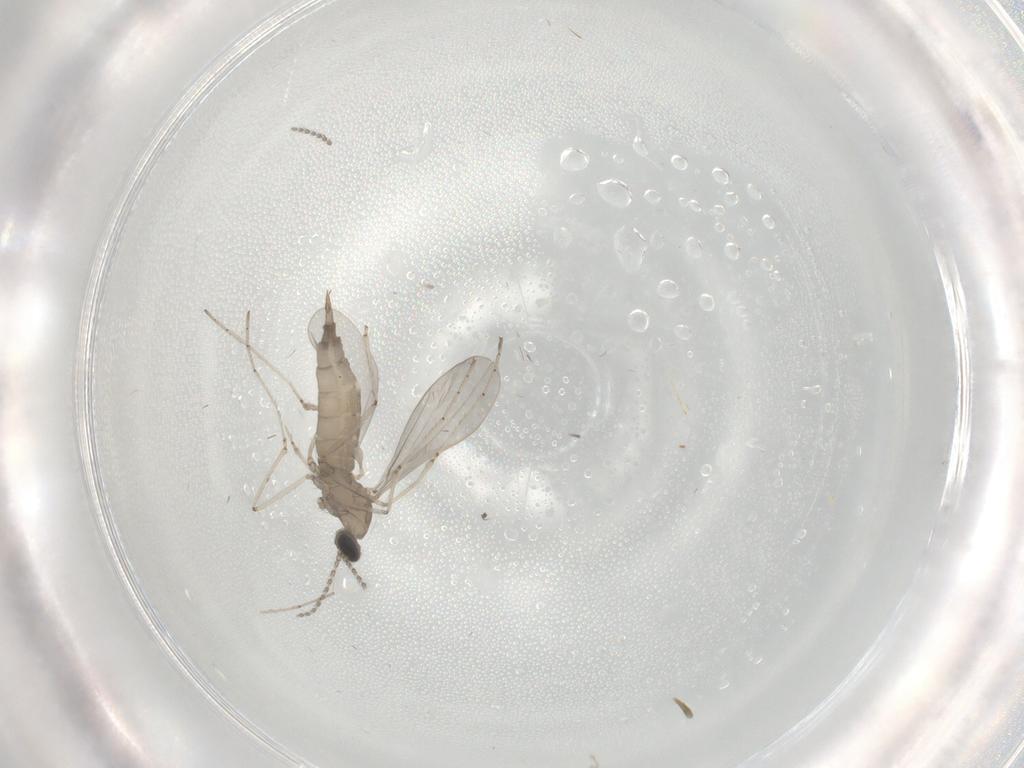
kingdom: Animalia
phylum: Arthropoda
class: Insecta
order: Diptera
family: Cecidomyiidae
